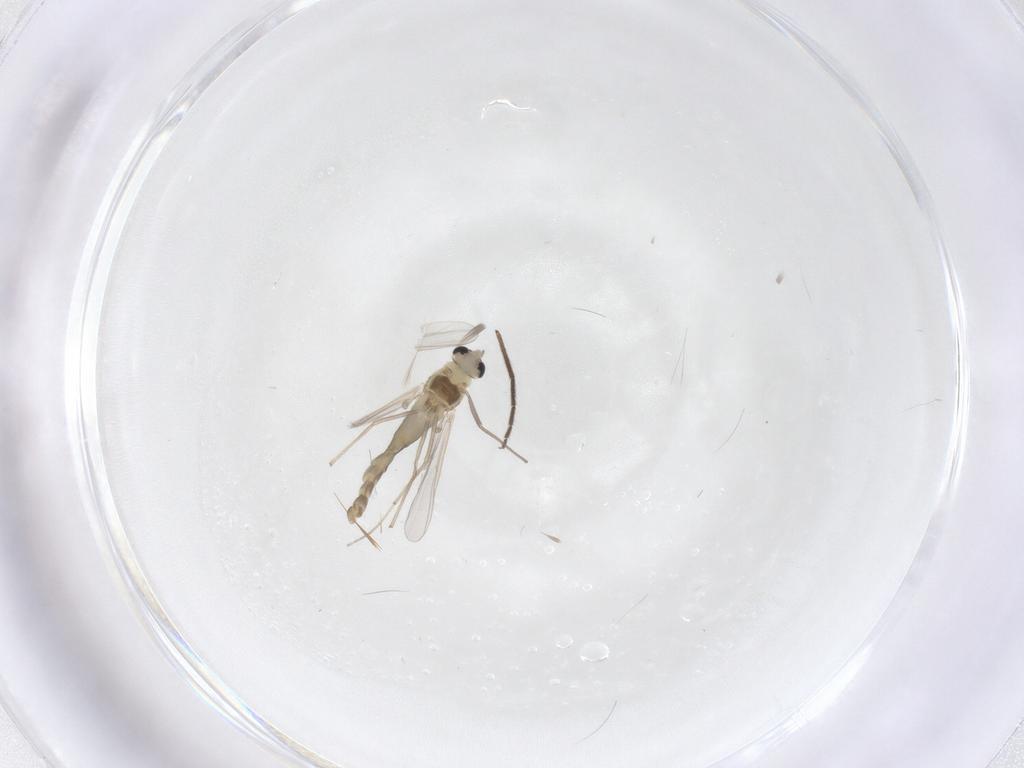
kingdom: Animalia
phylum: Arthropoda
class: Insecta
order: Diptera
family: Chironomidae
